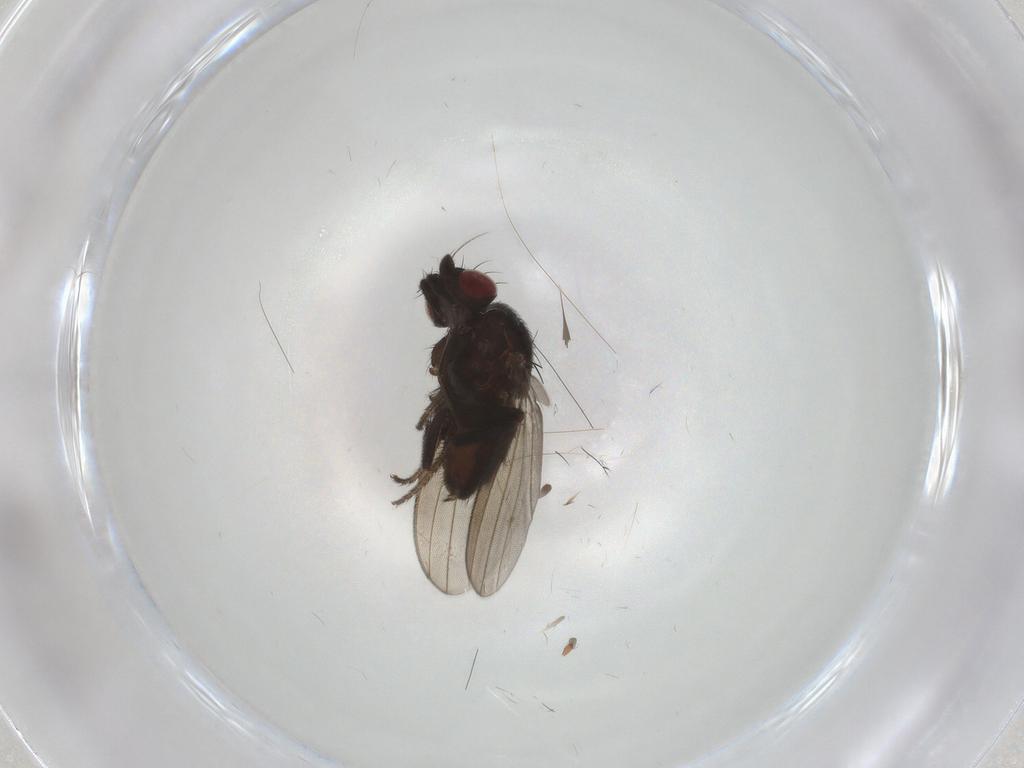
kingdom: Animalia
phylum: Arthropoda
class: Insecta
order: Diptera
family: Milichiidae
